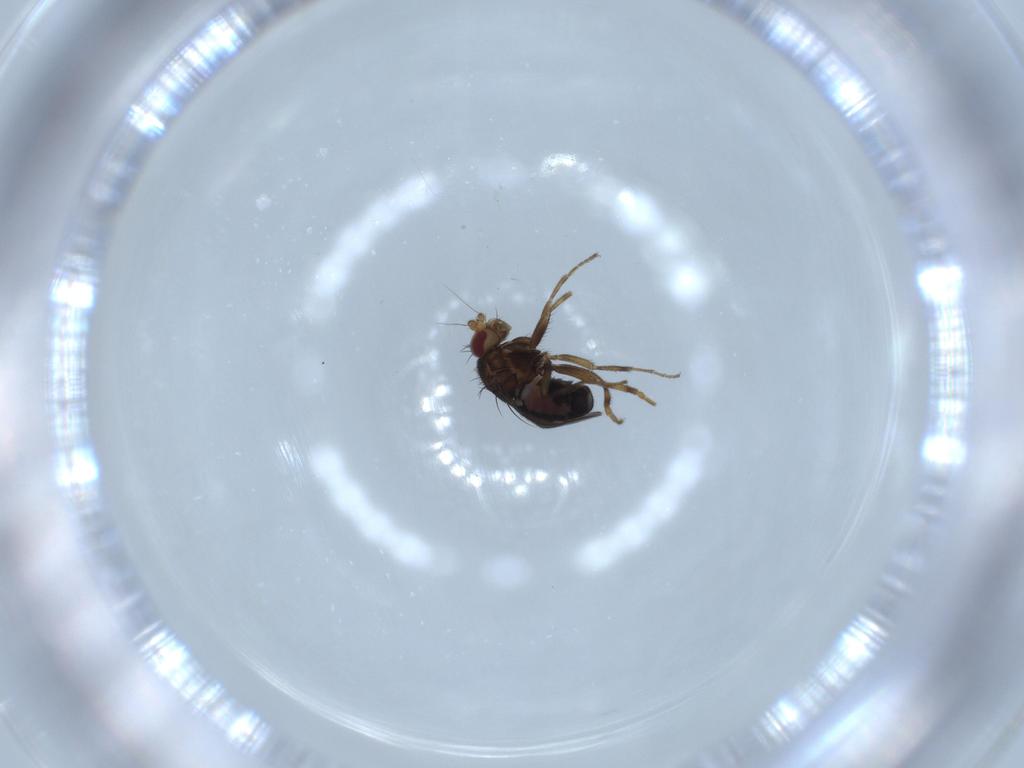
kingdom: Animalia
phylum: Arthropoda
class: Insecta
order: Diptera
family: Sphaeroceridae
